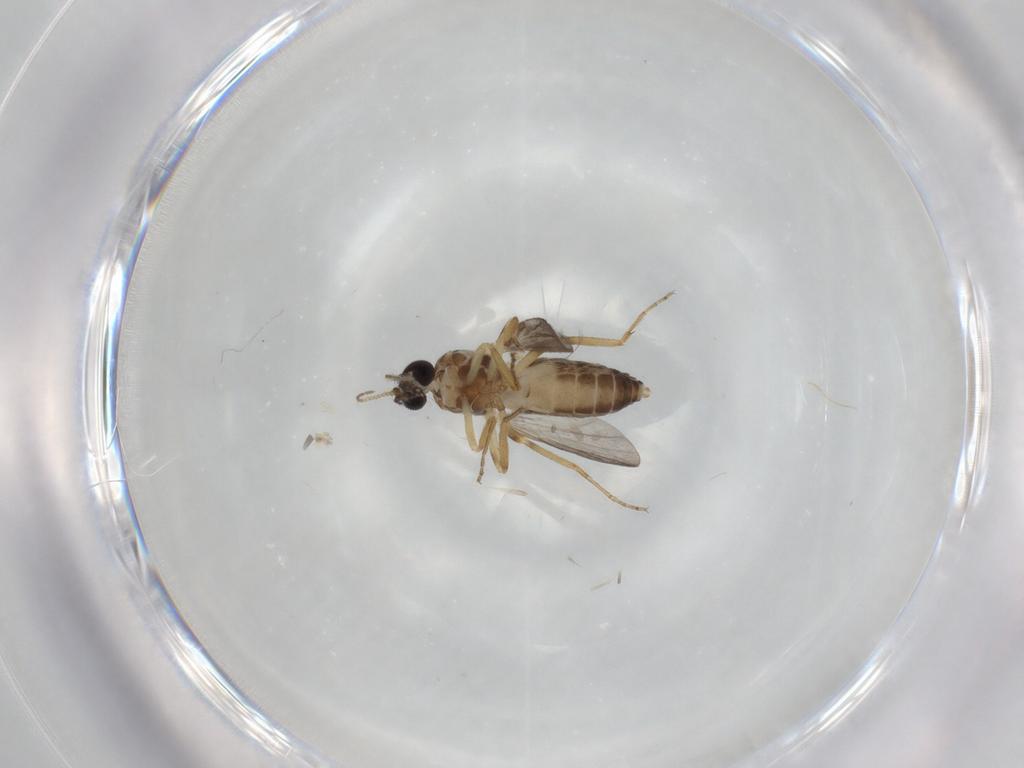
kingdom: Animalia
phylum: Arthropoda
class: Insecta
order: Diptera
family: Ceratopogonidae
